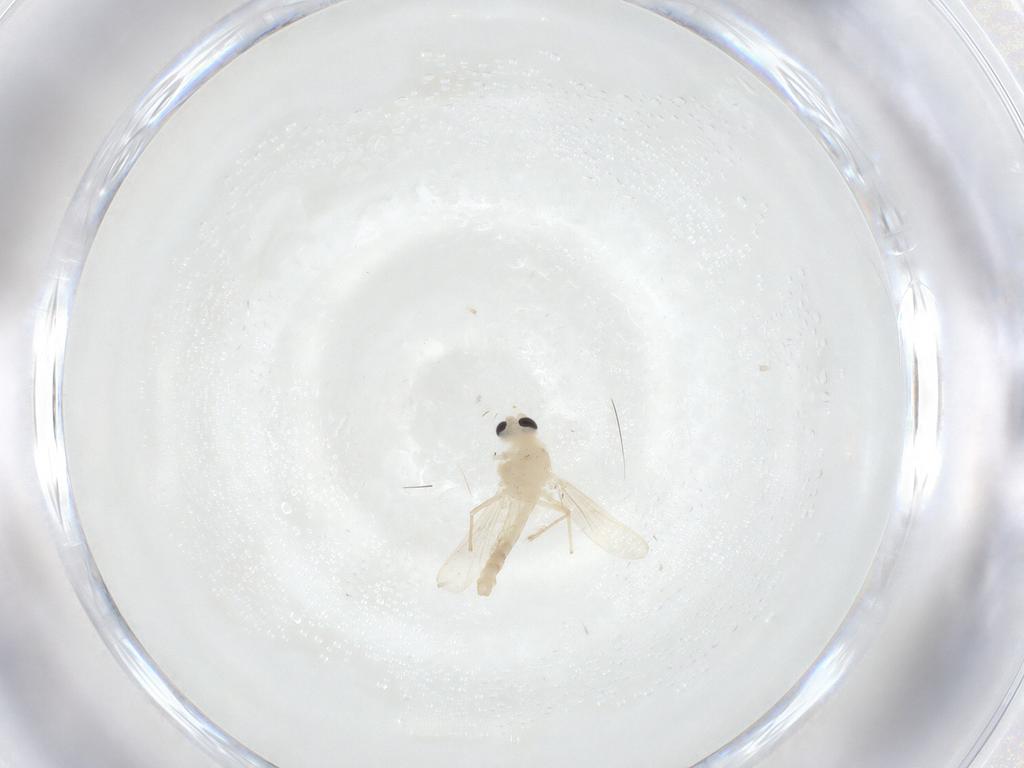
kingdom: Animalia
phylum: Arthropoda
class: Insecta
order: Diptera
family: Chironomidae
